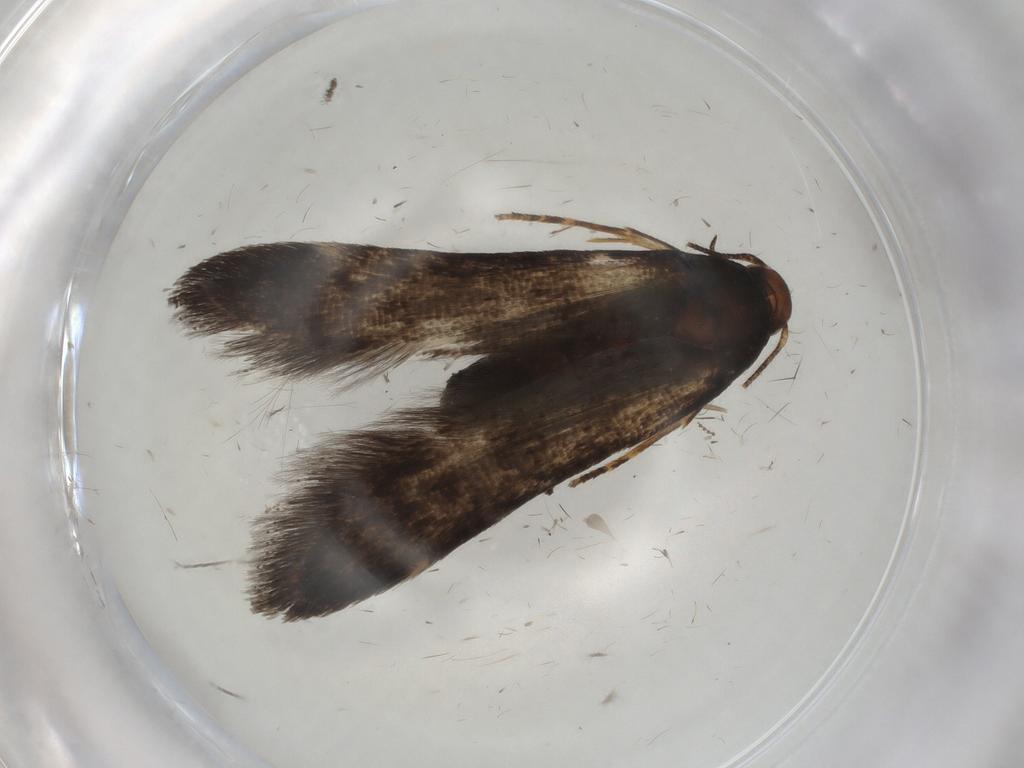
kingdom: Animalia
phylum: Arthropoda
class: Insecta
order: Lepidoptera
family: Noctuidae
